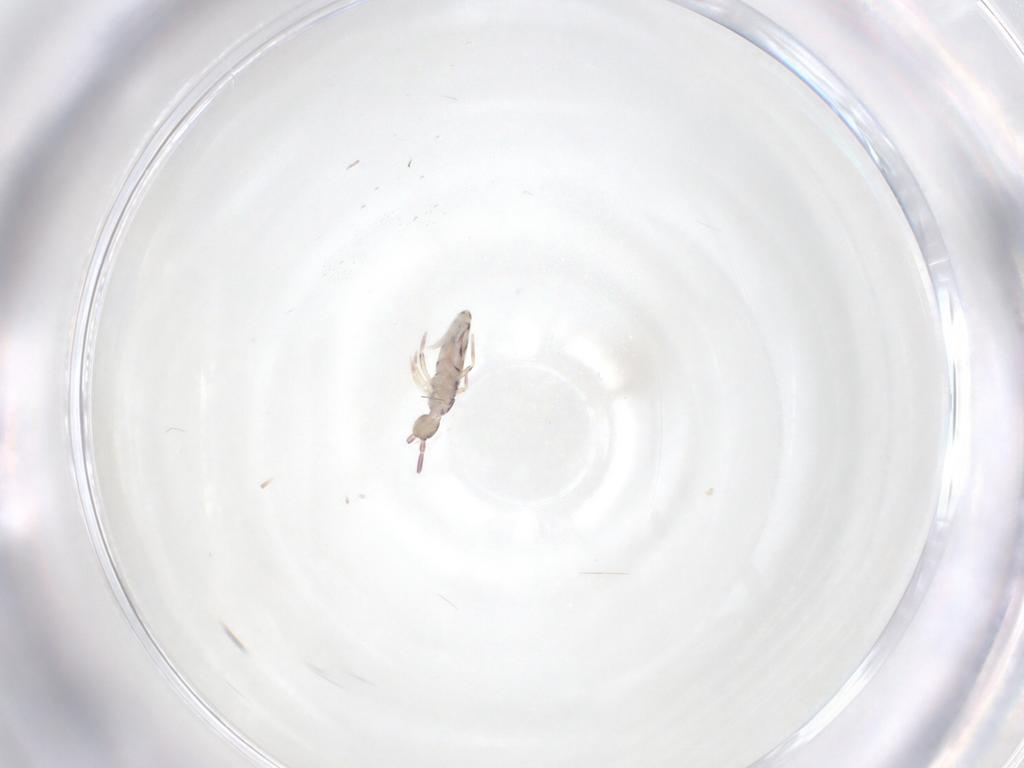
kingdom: Animalia
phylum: Arthropoda
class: Collembola
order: Entomobryomorpha
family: Entomobryidae
